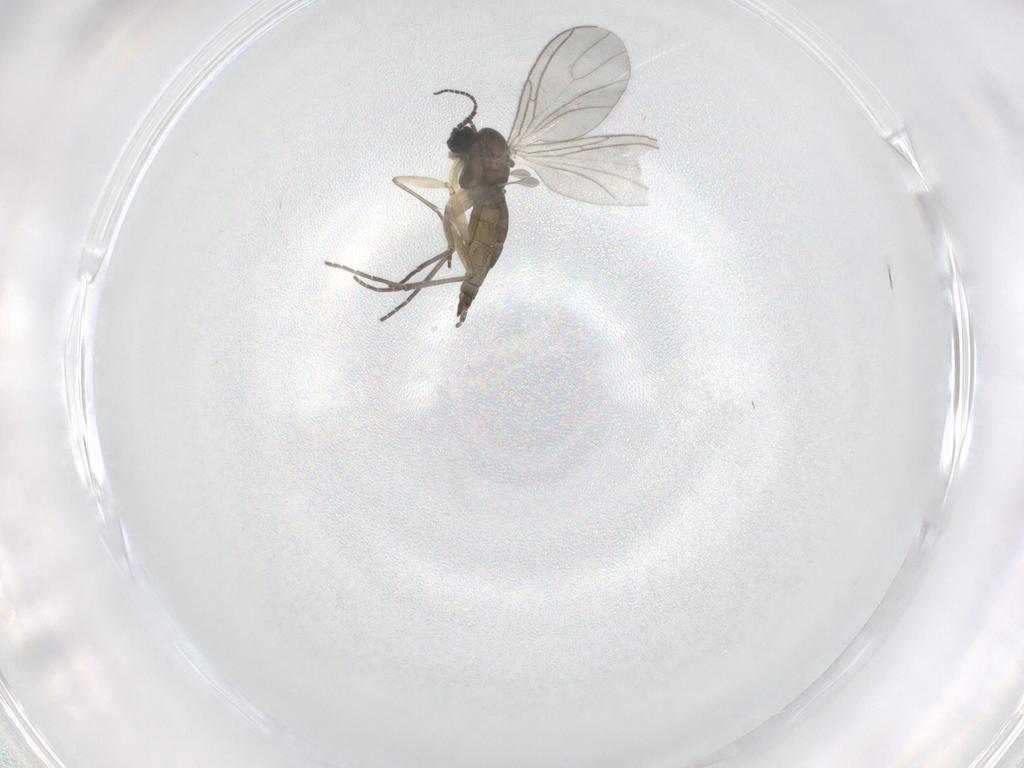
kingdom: Animalia
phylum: Arthropoda
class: Insecta
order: Diptera
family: Sciaridae
